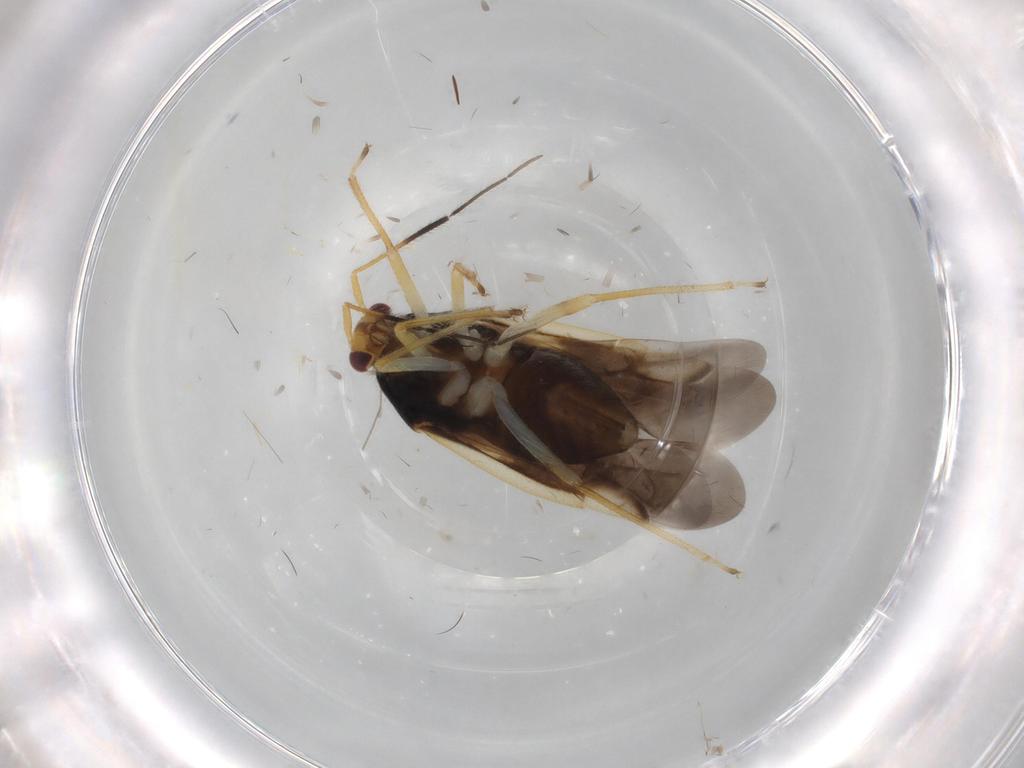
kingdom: Animalia
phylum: Arthropoda
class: Insecta
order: Hemiptera
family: Miridae
